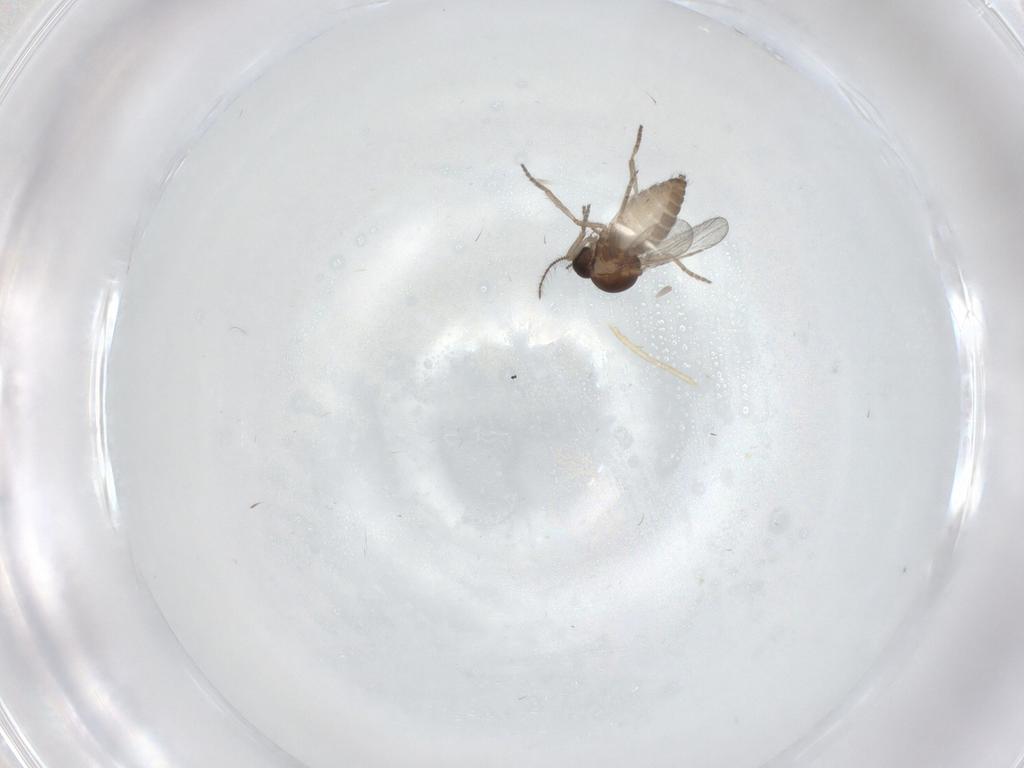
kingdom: Animalia
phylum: Arthropoda
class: Insecta
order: Diptera
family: Ceratopogonidae
